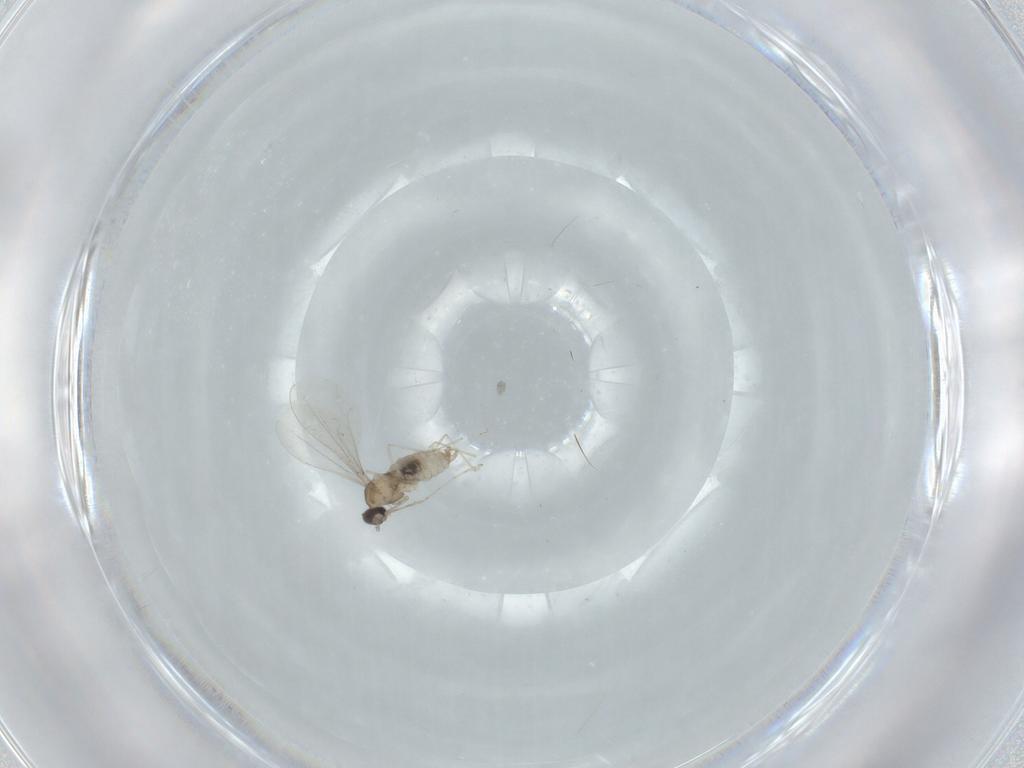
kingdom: Animalia
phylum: Arthropoda
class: Insecta
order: Diptera
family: Cecidomyiidae
